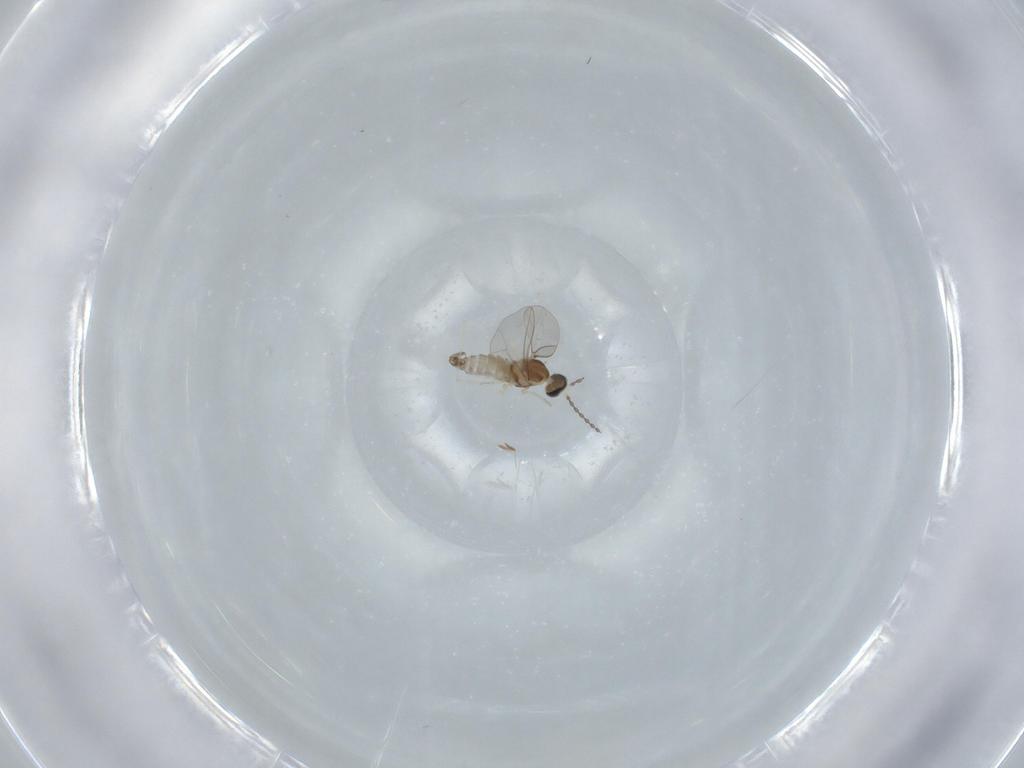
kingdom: Animalia
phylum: Arthropoda
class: Insecta
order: Diptera
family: Cecidomyiidae
